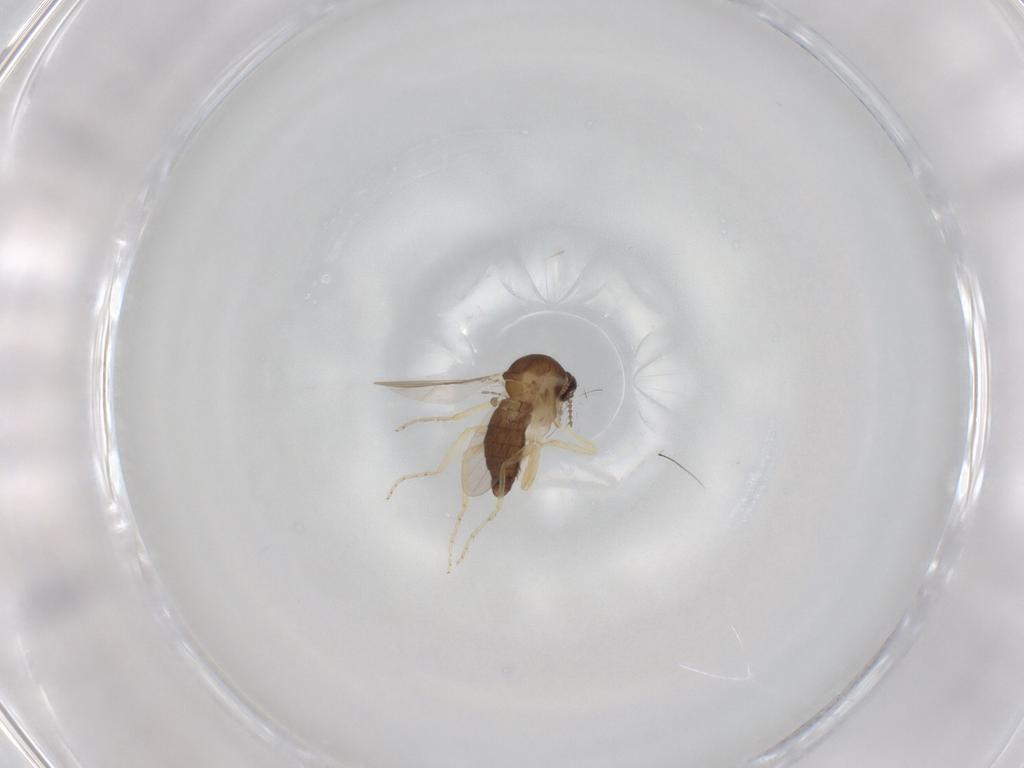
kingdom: Animalia
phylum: Arthropoda
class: Insecta
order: Diptera
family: Ceratopogonidae
